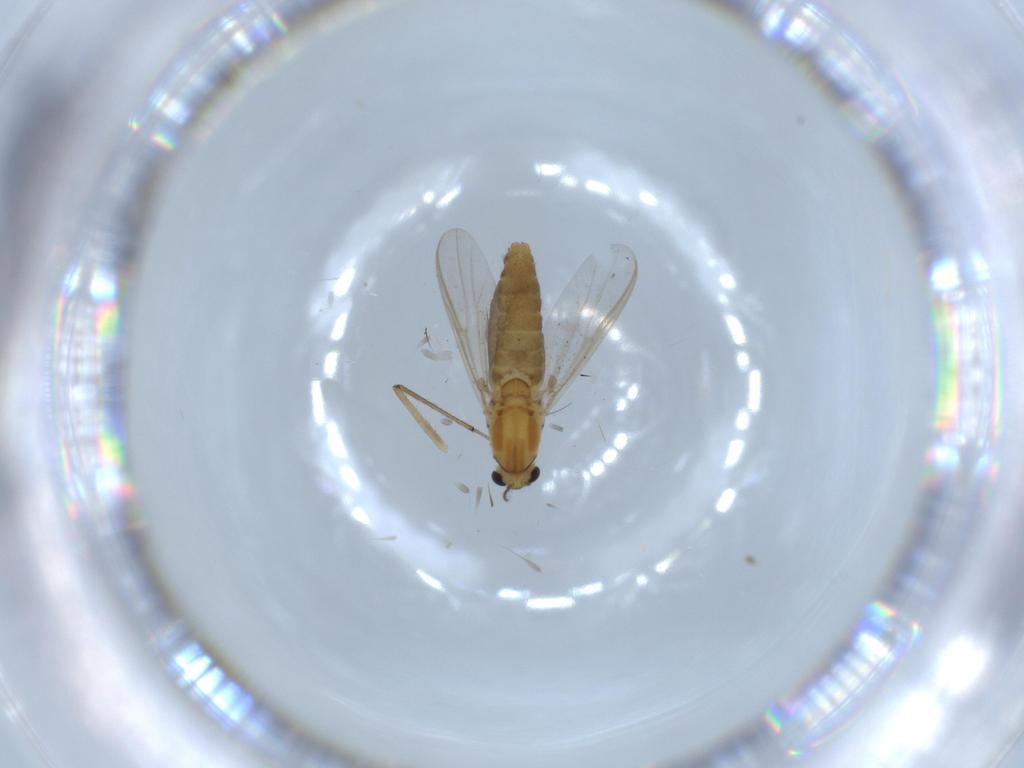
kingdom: Animalia
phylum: Arthropoda
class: Insecta
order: Diptera
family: Chironomidae
